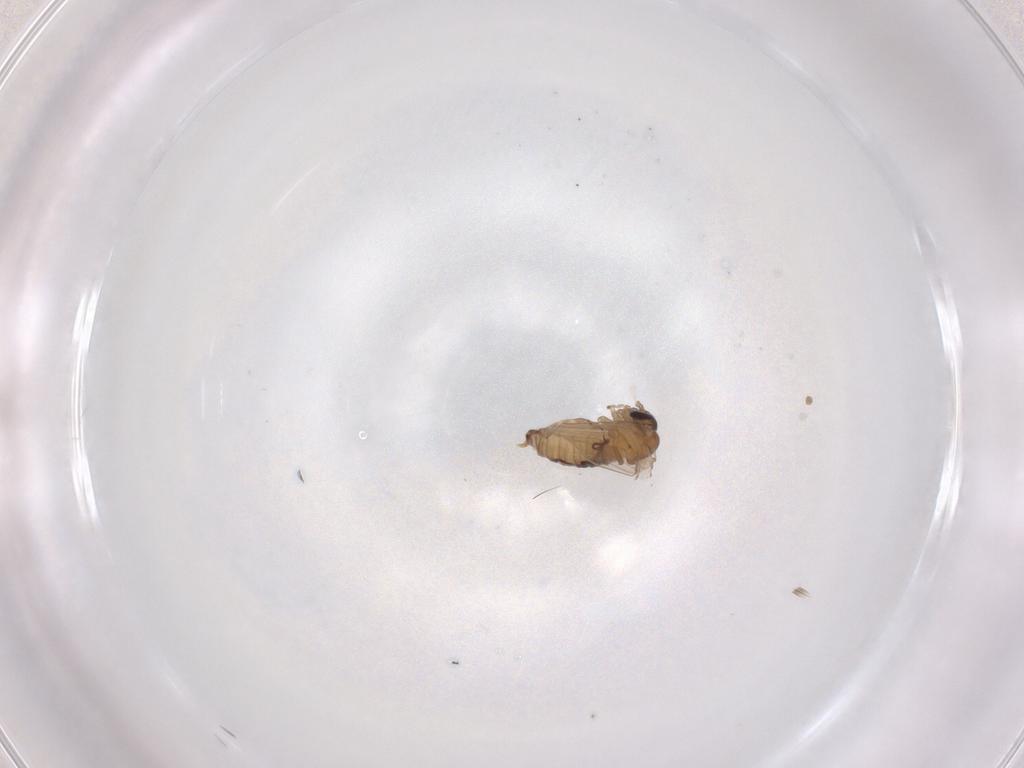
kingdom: Animalia
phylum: Arthropoda
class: Insecta
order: Diptera
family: Psychodidae
